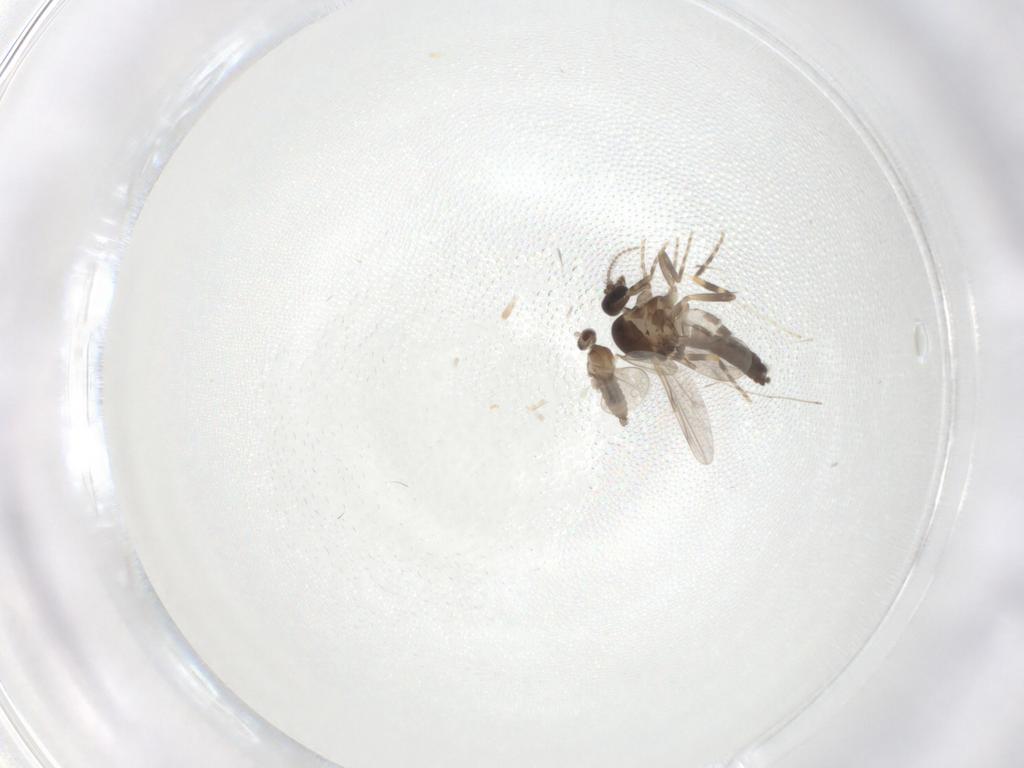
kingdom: Animalia
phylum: Arthropoda
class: Insecta
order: Diptera
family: Ceratopogonidae
